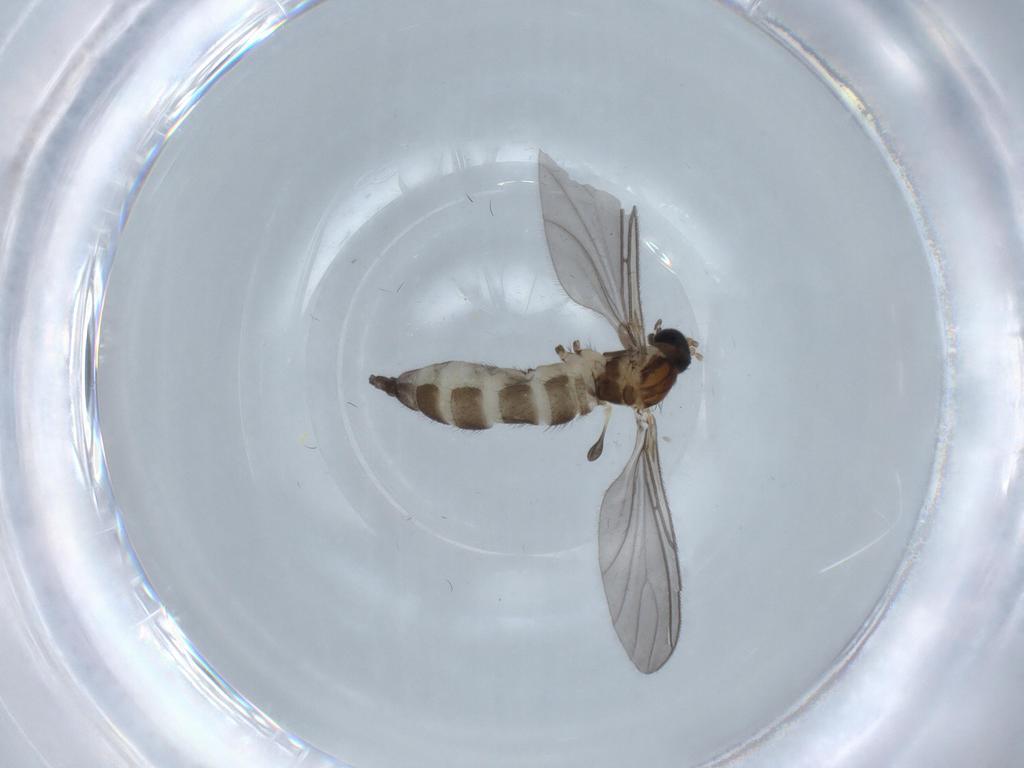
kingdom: Animalia
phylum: Arthropoda
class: Insecta
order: Diptera
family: Sciaridae
